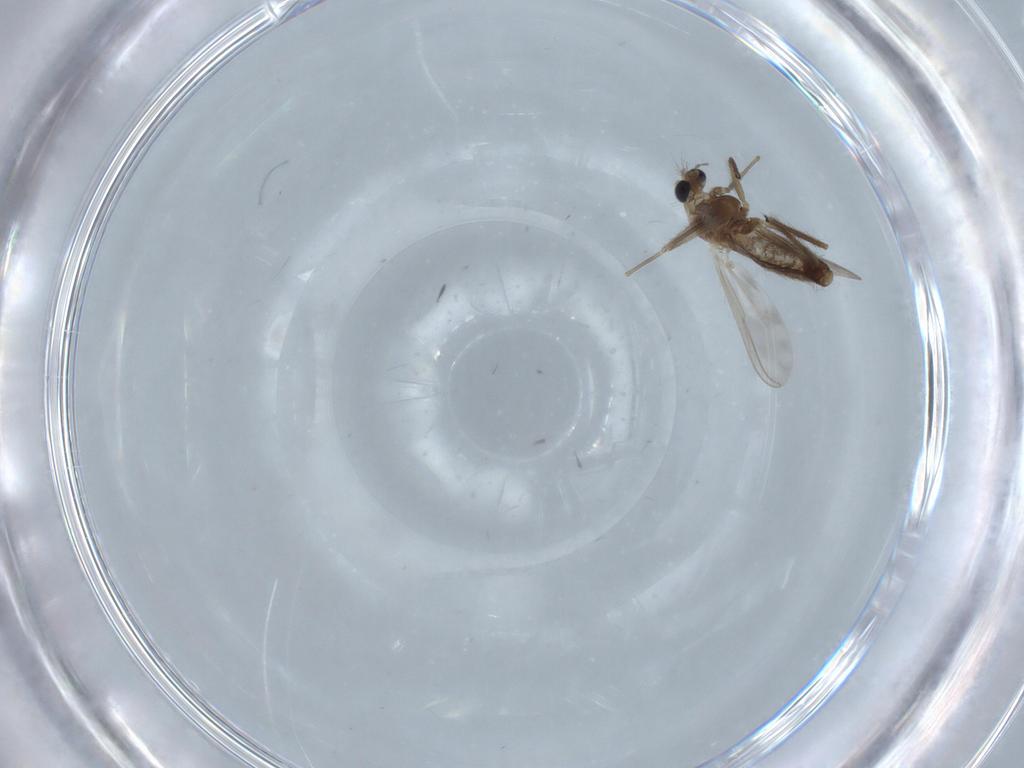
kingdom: Animalia
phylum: Arthropoda
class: Insecta
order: Diptera
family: Chironomidae
